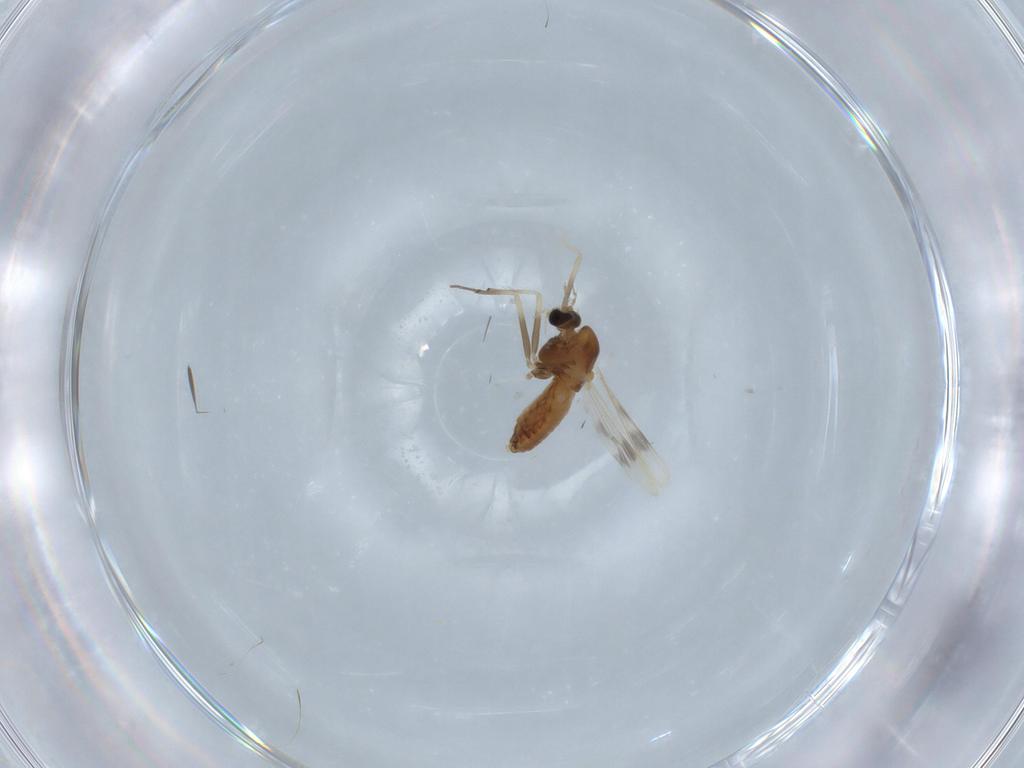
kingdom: Animalia
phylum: Arthropoda
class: Insecta
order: Diptera
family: Chironomidae
